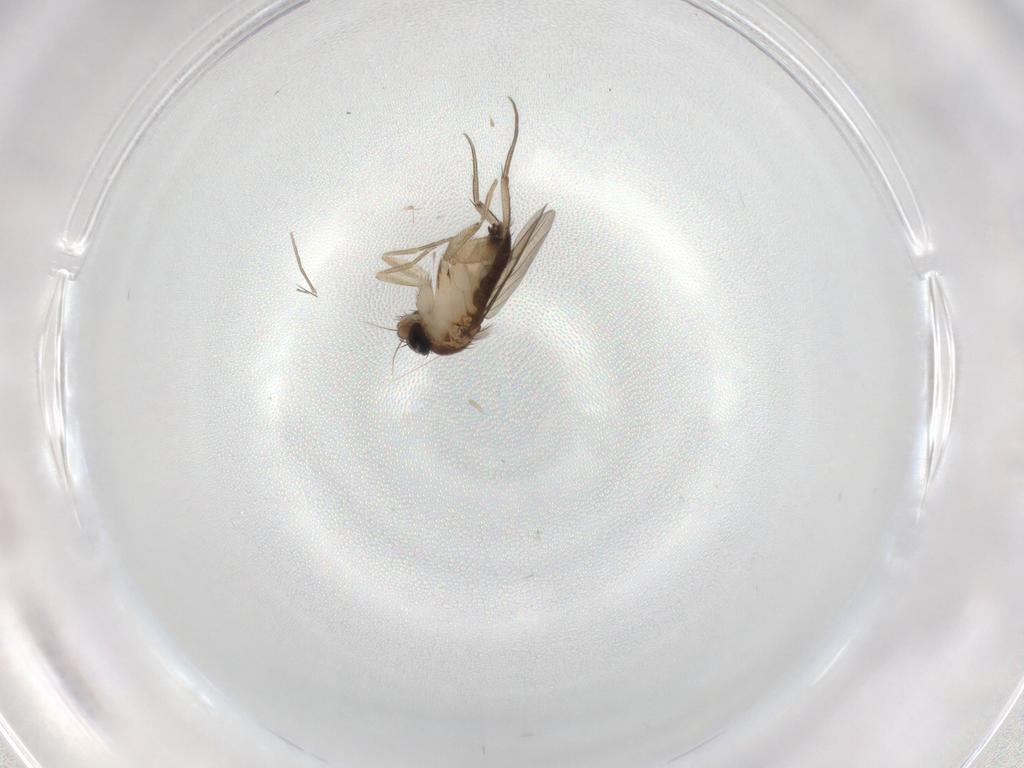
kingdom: Animalia
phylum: Arthropoda
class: Insecta
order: Diptera
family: Phoridae
